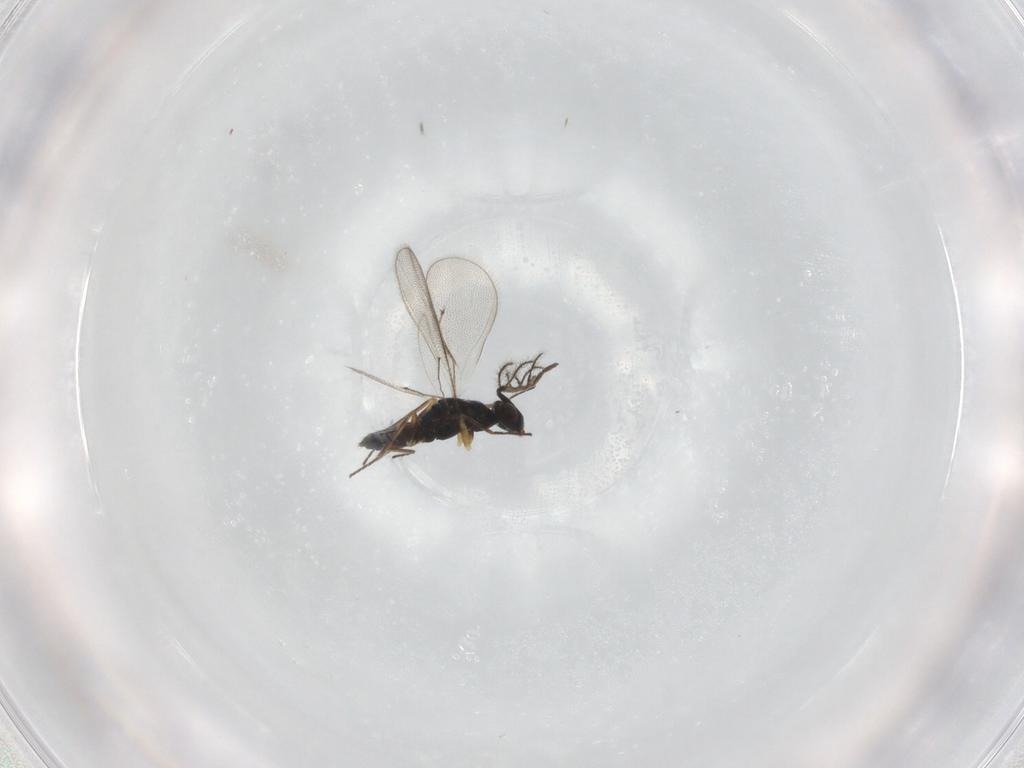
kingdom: Animalia
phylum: Arthropoda
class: Insecta
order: Hymenoptera
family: Eulophidae
